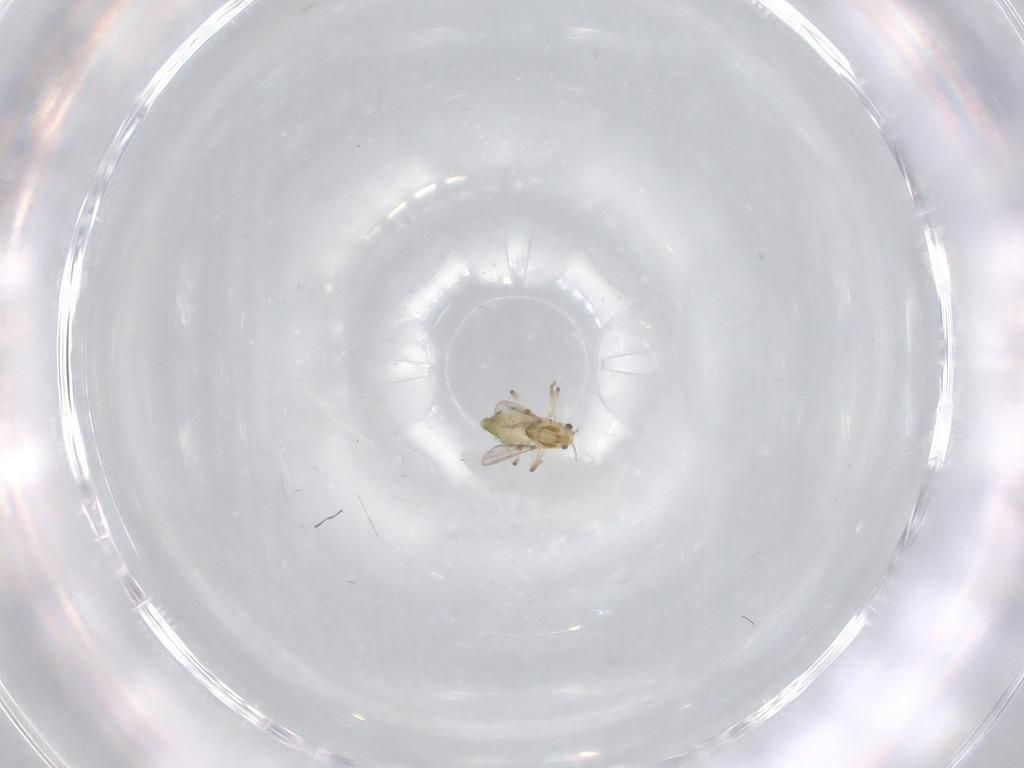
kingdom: Animalia
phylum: Arthropoda
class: Insecta
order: Diptera
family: Chironomidae
